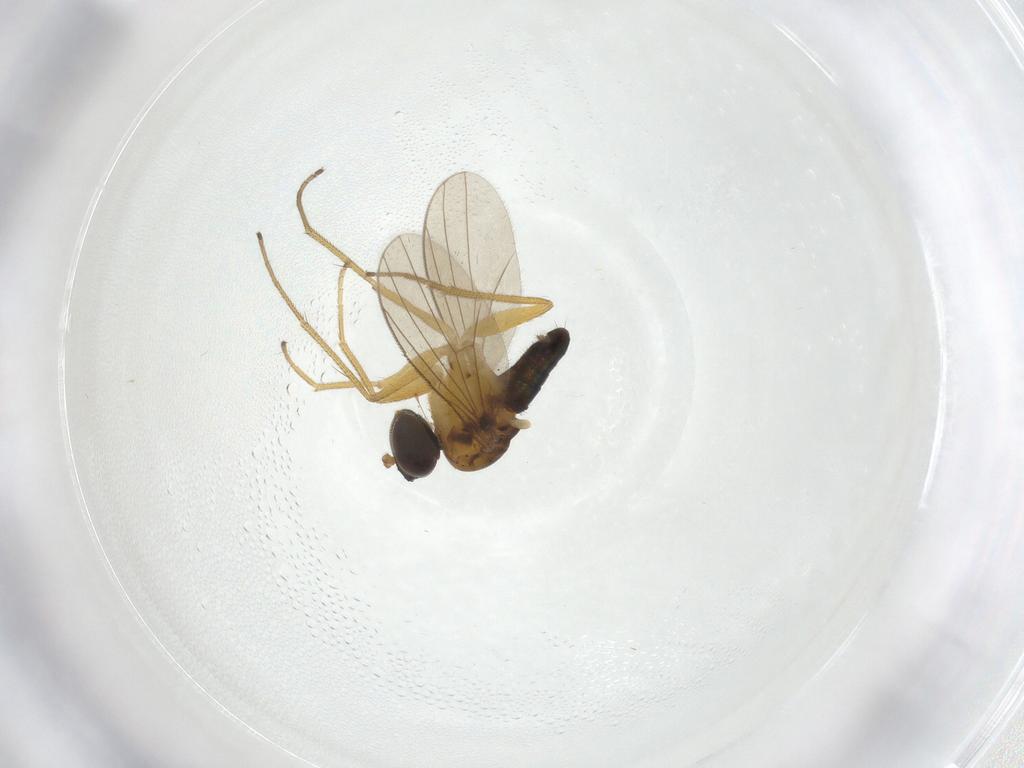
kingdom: Animalia
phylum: Arthropoda
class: Insecta
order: Diptera
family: Dolichopodidae
